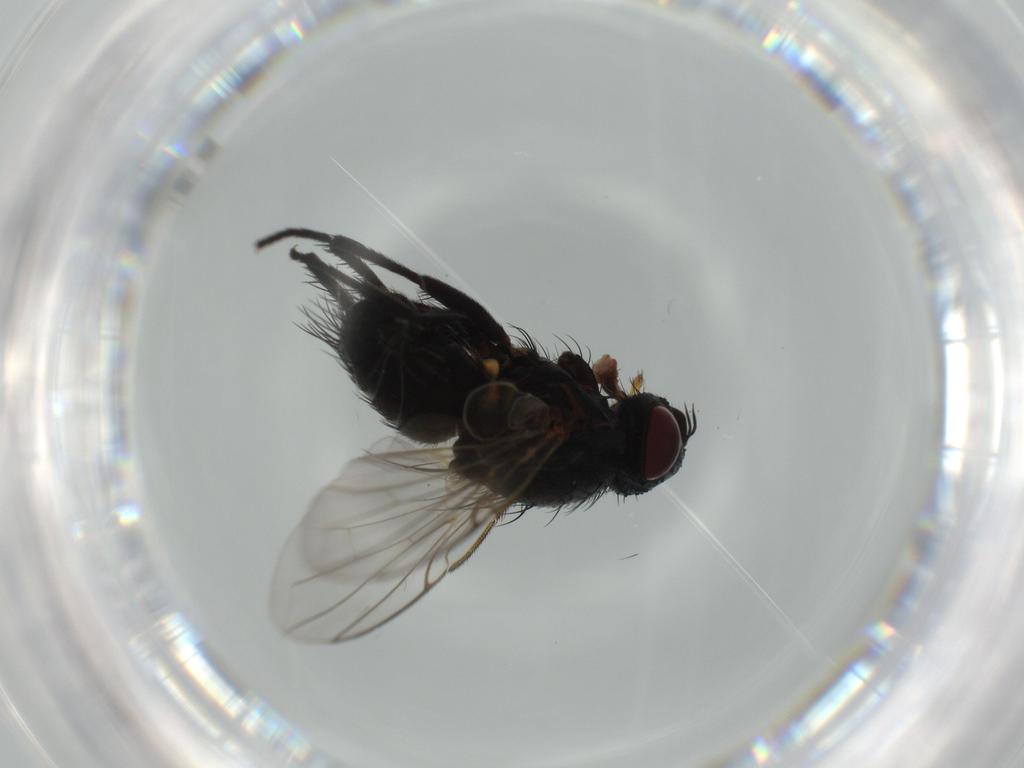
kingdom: Animalia
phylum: Arthropoda
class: Insecta
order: Diptera
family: Tachinidae
